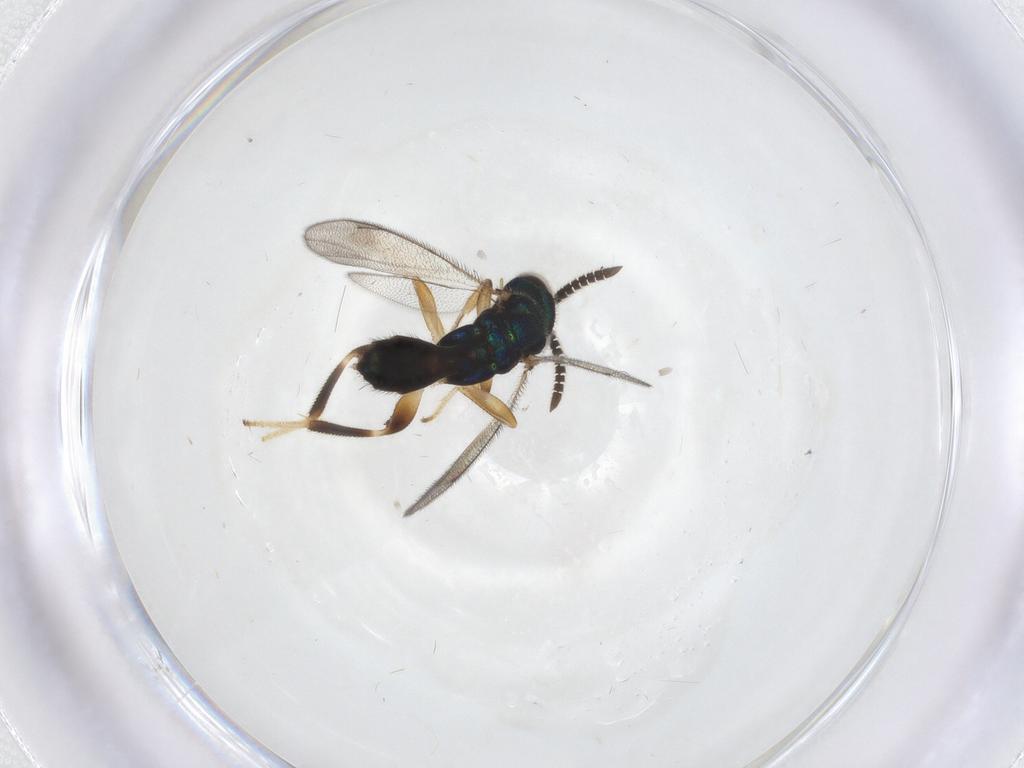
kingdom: Animalia
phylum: Arthropoda
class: Insecta
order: Hymenoptera
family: Cleonyminae
